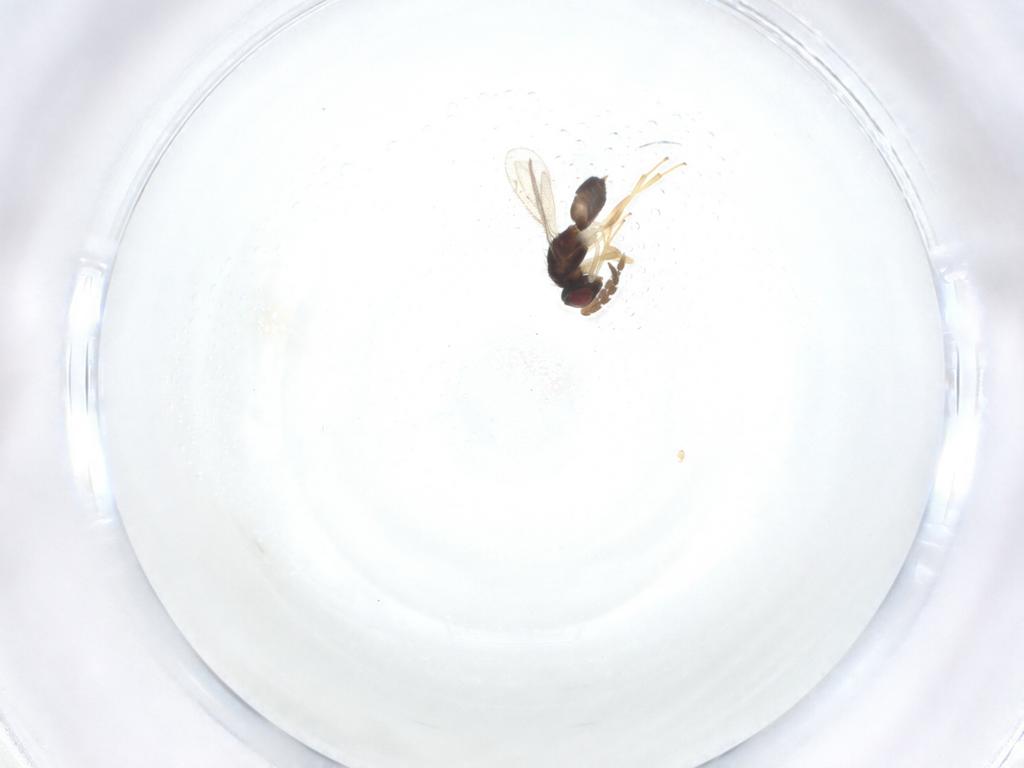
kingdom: Animalia
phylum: Arthropoda
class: Insecta
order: Hymenoptera
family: Eulophidae
